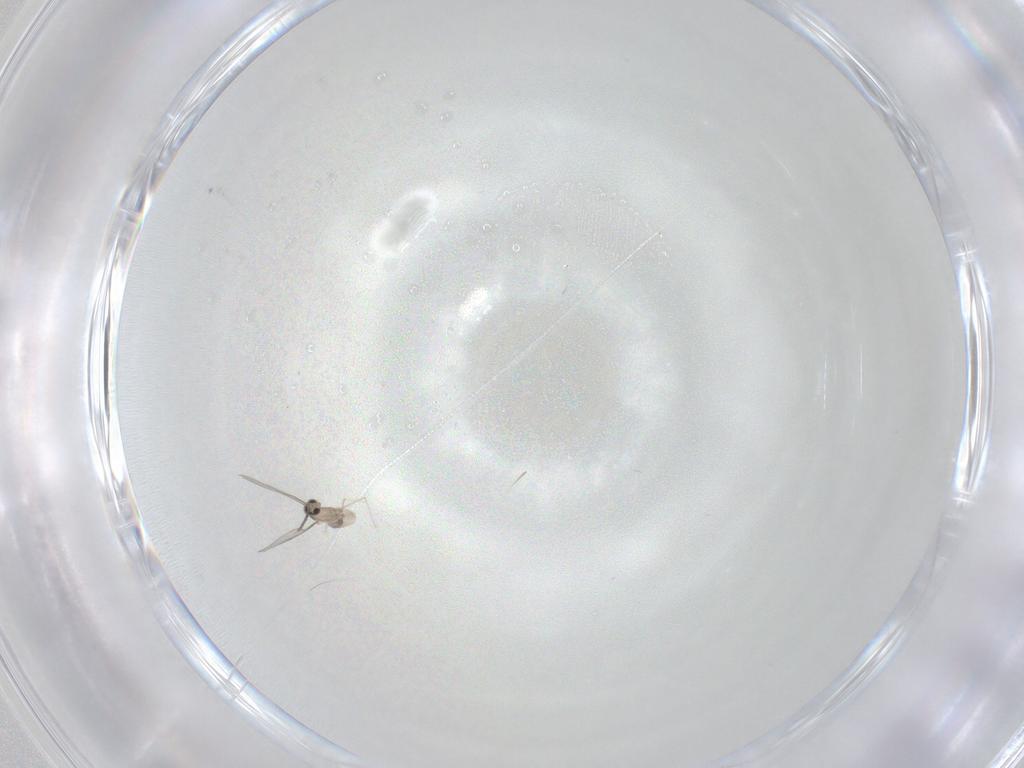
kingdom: Animalia
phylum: Arthropoda
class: Insecta
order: Diptera
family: Cecidomyiidae
